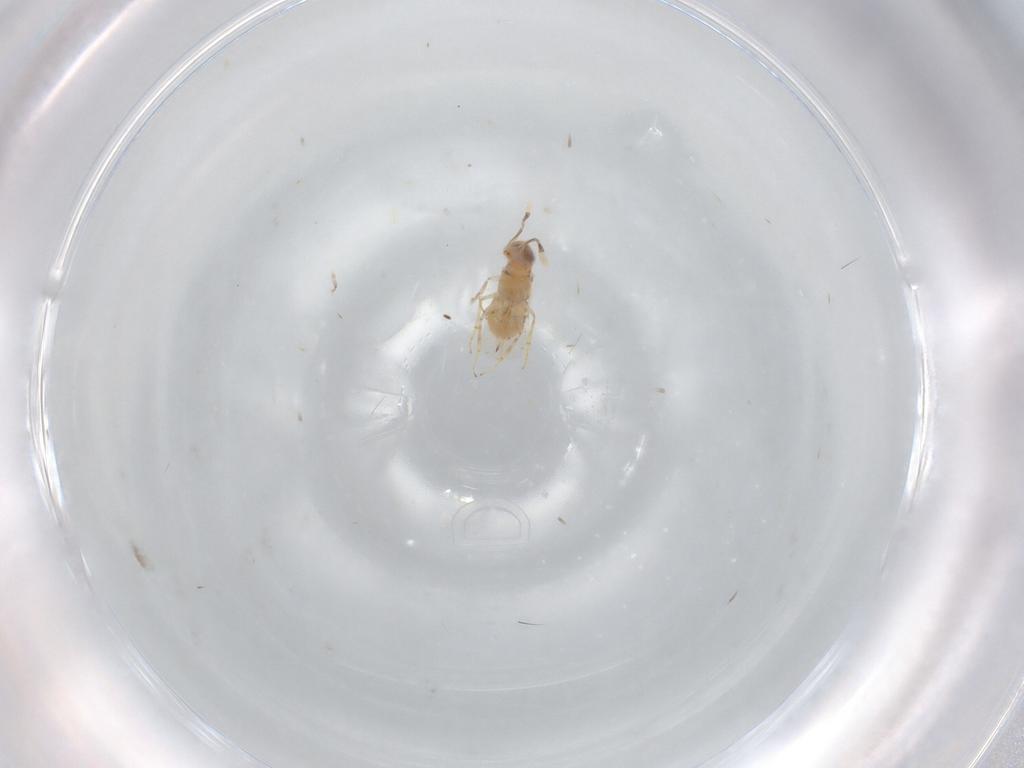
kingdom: Animalia
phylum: Arthropoda
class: Insecta
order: Hymenoptera
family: Encyrtidae
